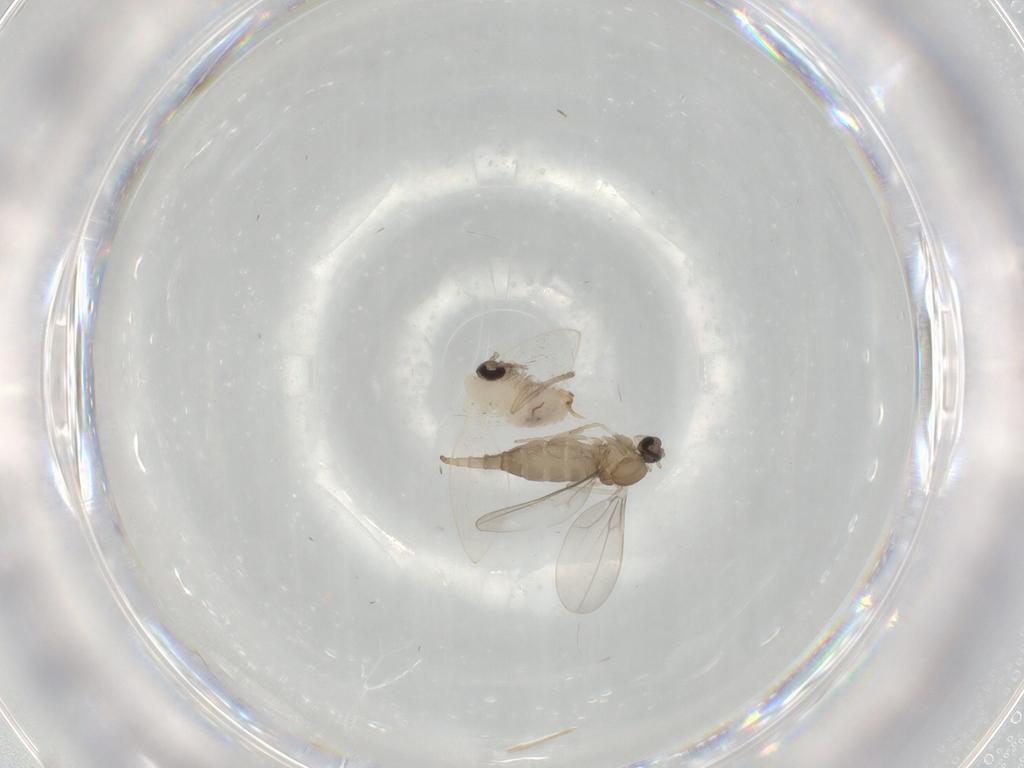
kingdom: Animalia
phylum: Arthropoda
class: Insecta
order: Diptera
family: Psychodidae
